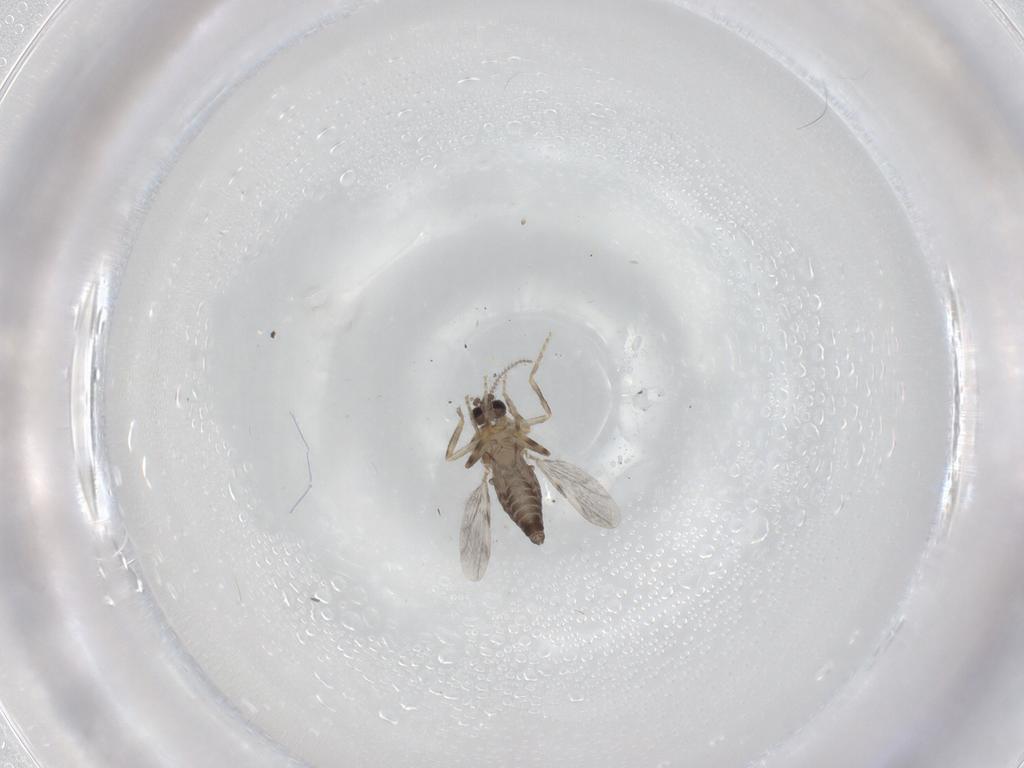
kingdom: Animalia
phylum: Arthropoda
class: Insecta
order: Diptera
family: Ceratopogonidae
